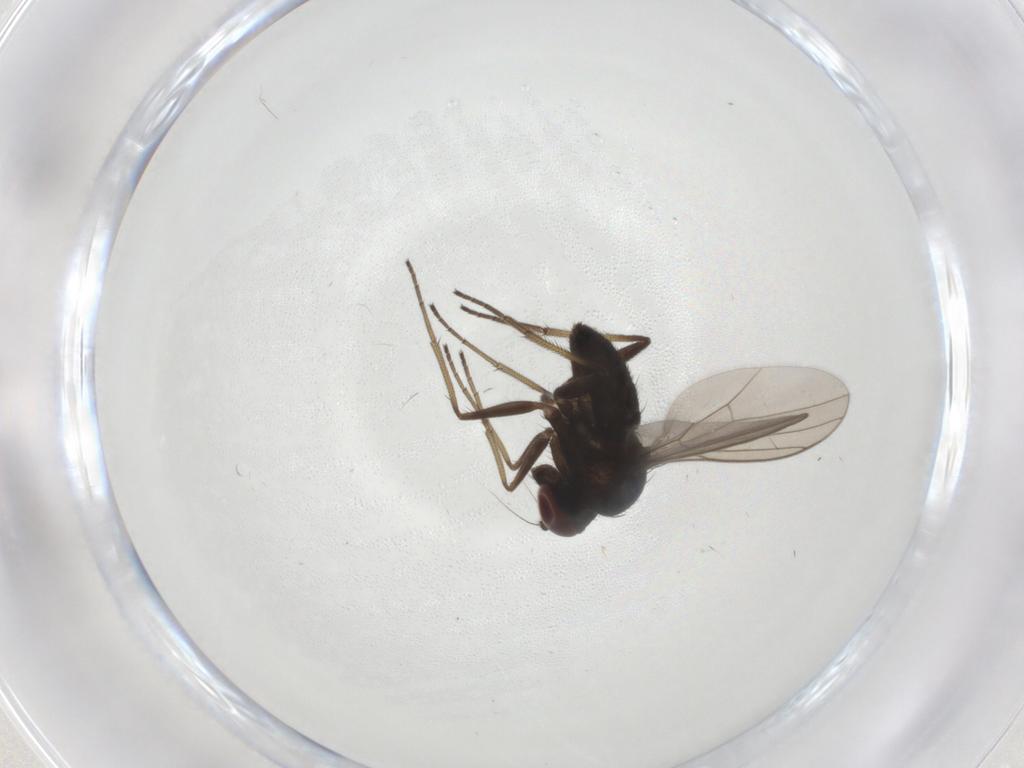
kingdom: Animalia
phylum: Arthropoda
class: Insecta
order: Diptera
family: Dolichopodidae
